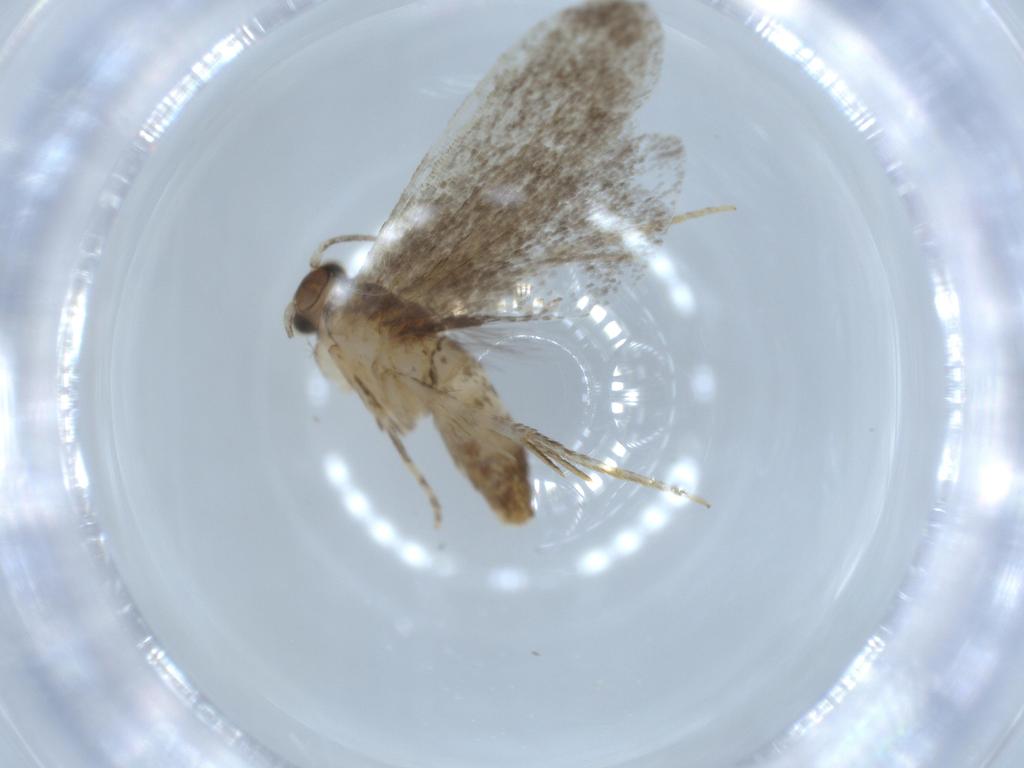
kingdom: Animalia
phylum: Arthropoda
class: Insecta
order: Lepidoptera
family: Tineidae
